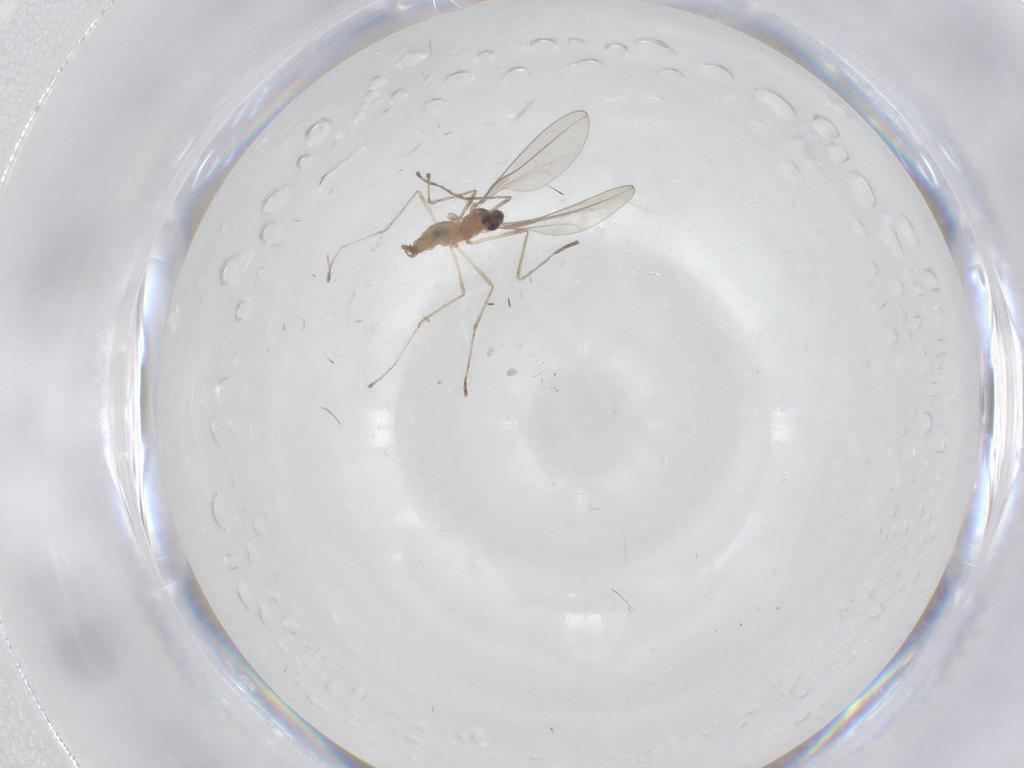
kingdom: Animalia
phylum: Arthropoda
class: Insecta
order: Diptera
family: Cecidomyiidae
